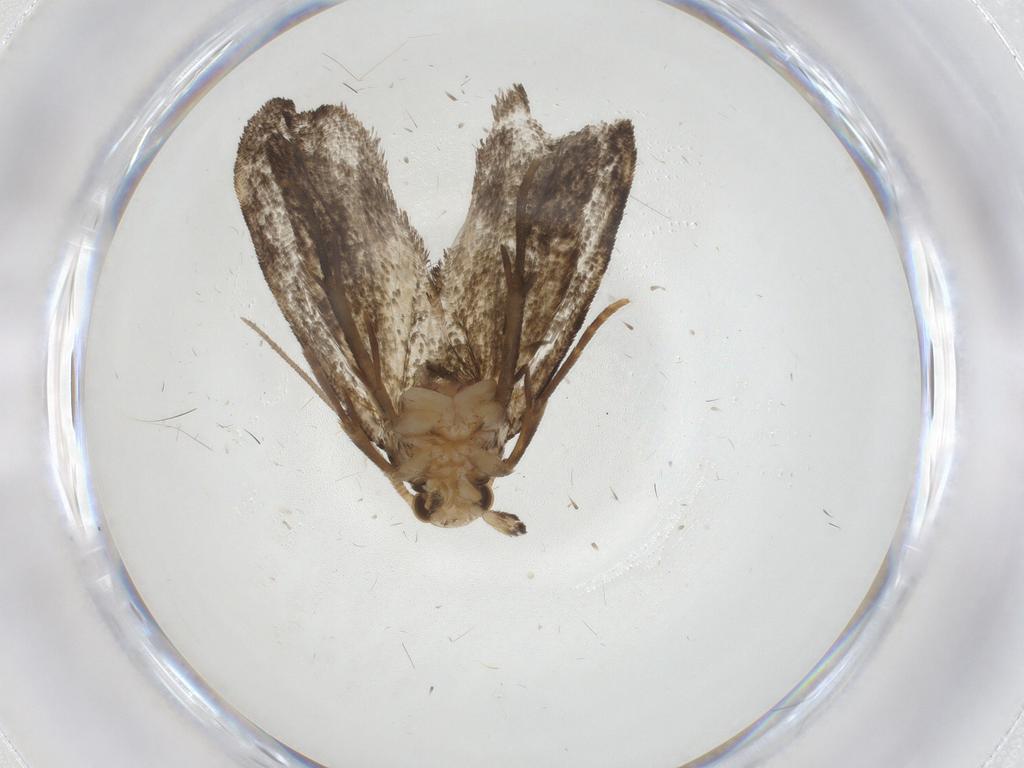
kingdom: Animalia
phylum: Arthropoda
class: Insecta
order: Lepidoptera
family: Dryadaulidae
